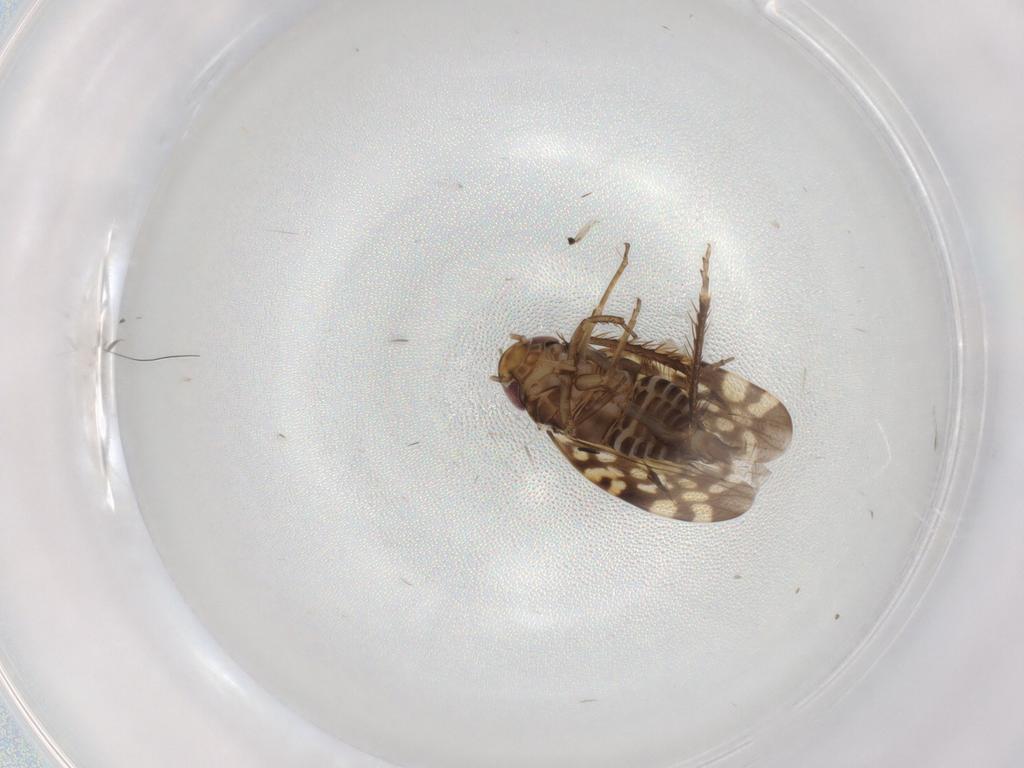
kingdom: Animalia
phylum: Arthropoda
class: Insecta
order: Hemiptera
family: Cicadellidae
